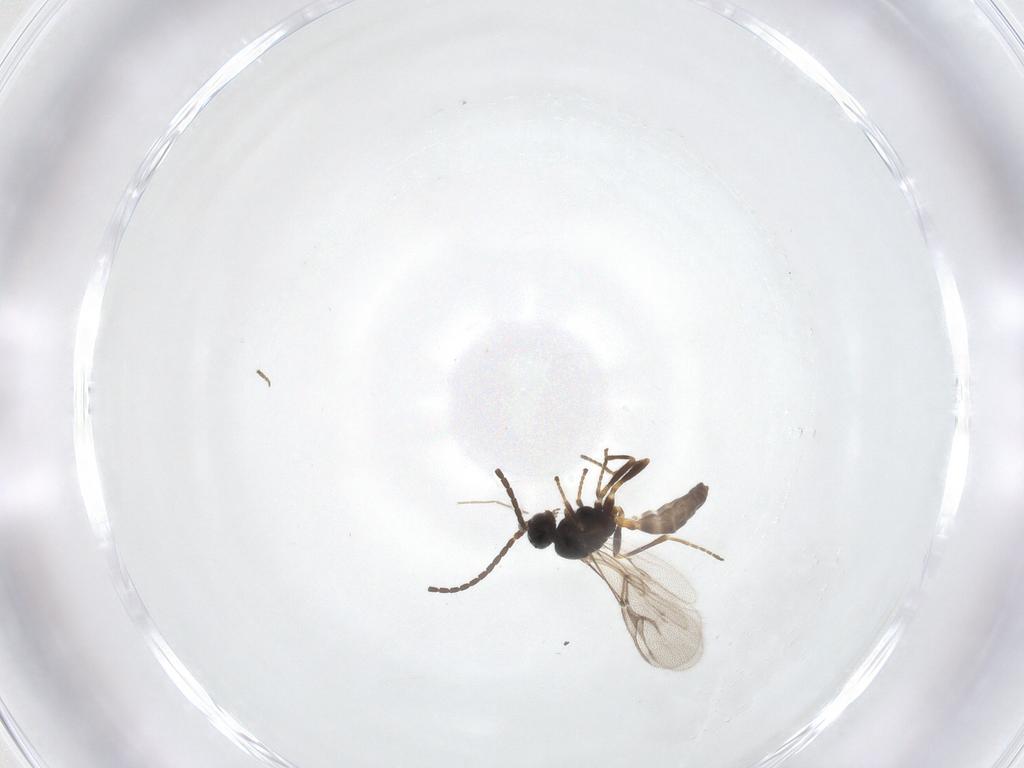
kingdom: Animalia
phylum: Arthropoda
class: Insecta
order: Hymenoptera
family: Braconidae
